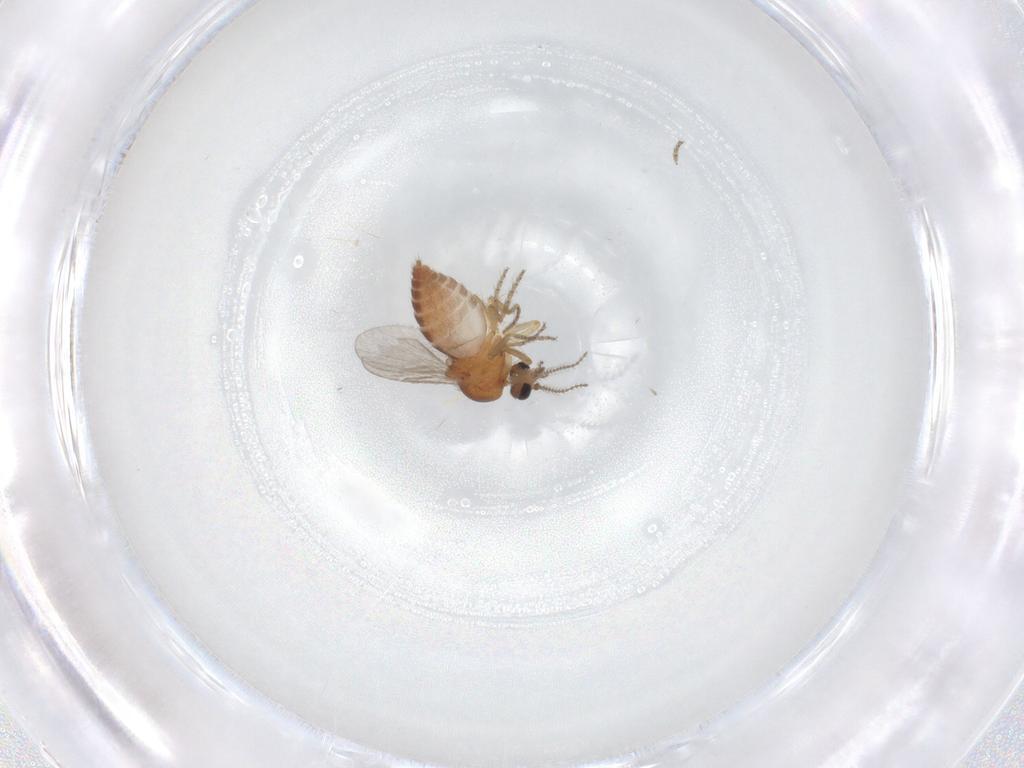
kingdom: Animalia
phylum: Arthropoda
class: Insecta
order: Diptera
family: Ceratopogonidae
